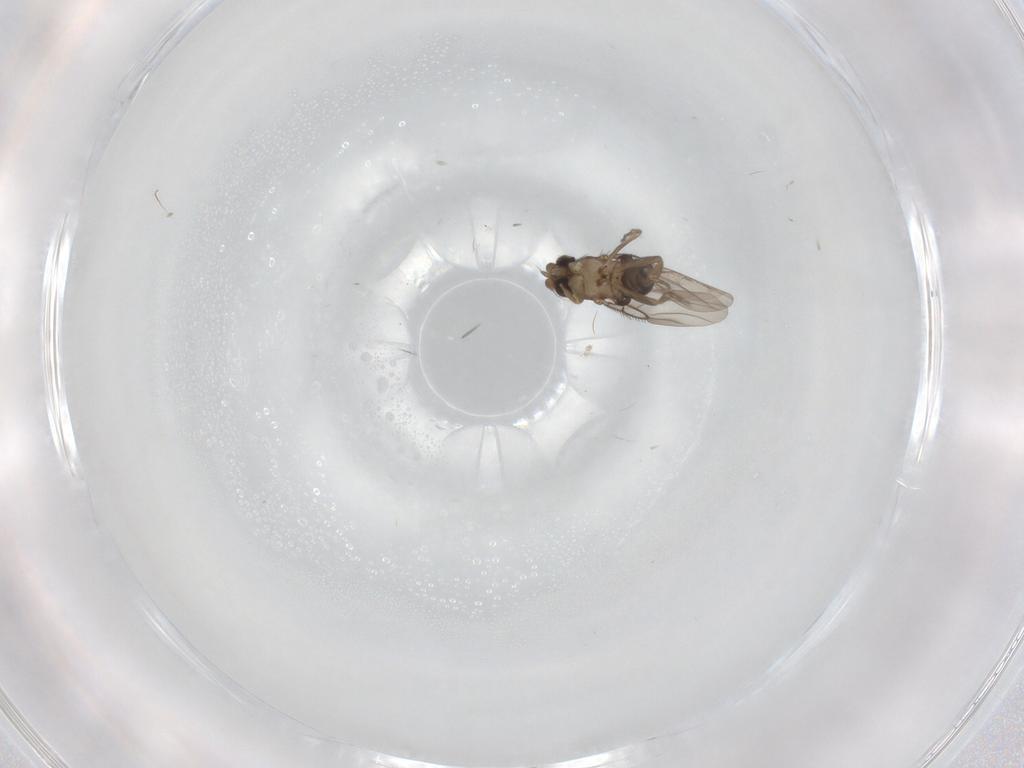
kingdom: Animalia
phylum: Arthropoda
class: Insecta
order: Diptera
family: Phoridae
